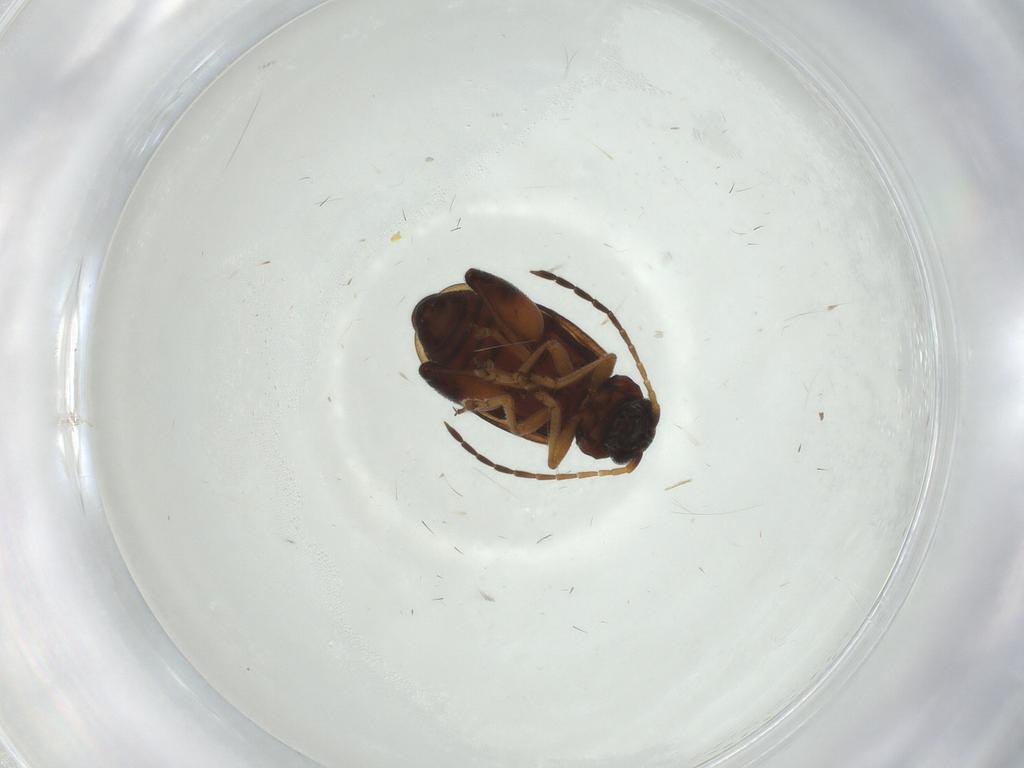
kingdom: Animalia
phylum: Arthropoda
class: Insecta
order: Coleoptera
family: Chrysomelidae
